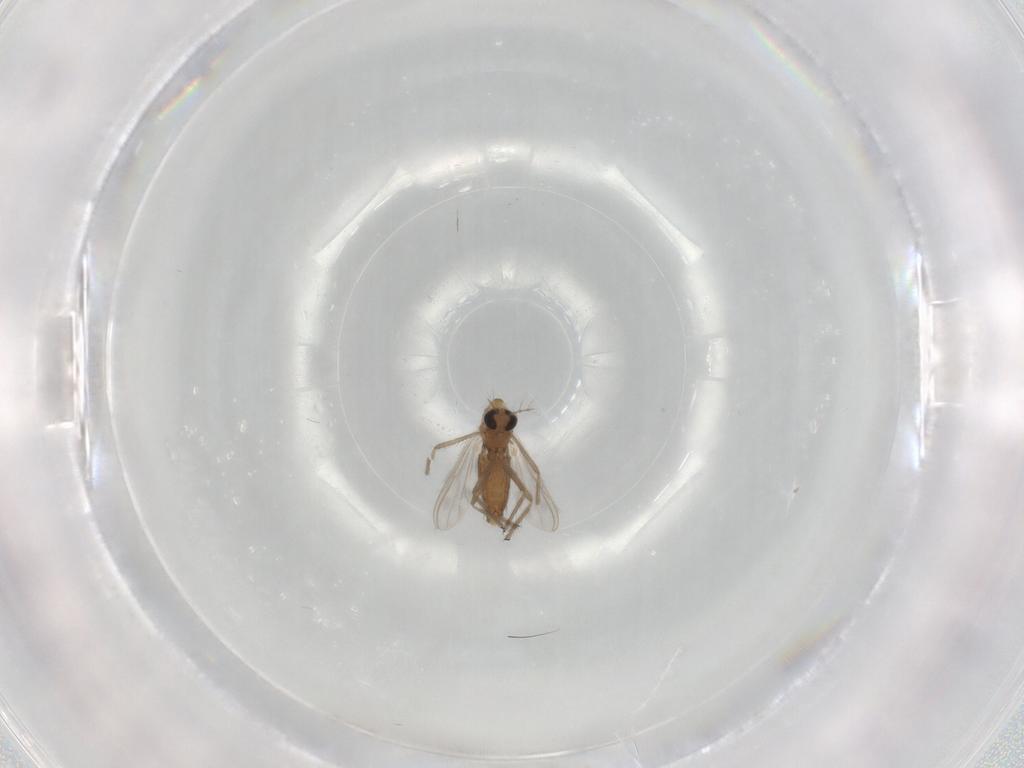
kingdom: Animalia
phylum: Arthropoda
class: Insecta
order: Diptera
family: Chironomidae
